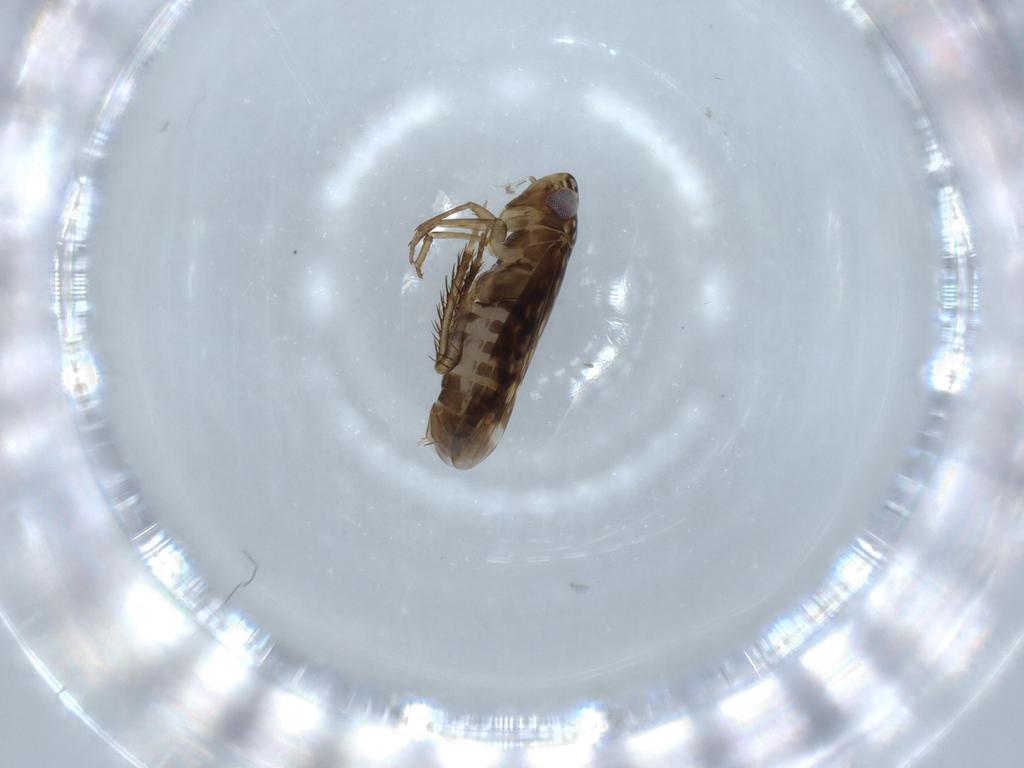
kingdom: Animalia
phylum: Arthropoda
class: Insecta
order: Hemiptera
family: Cicadellidae
